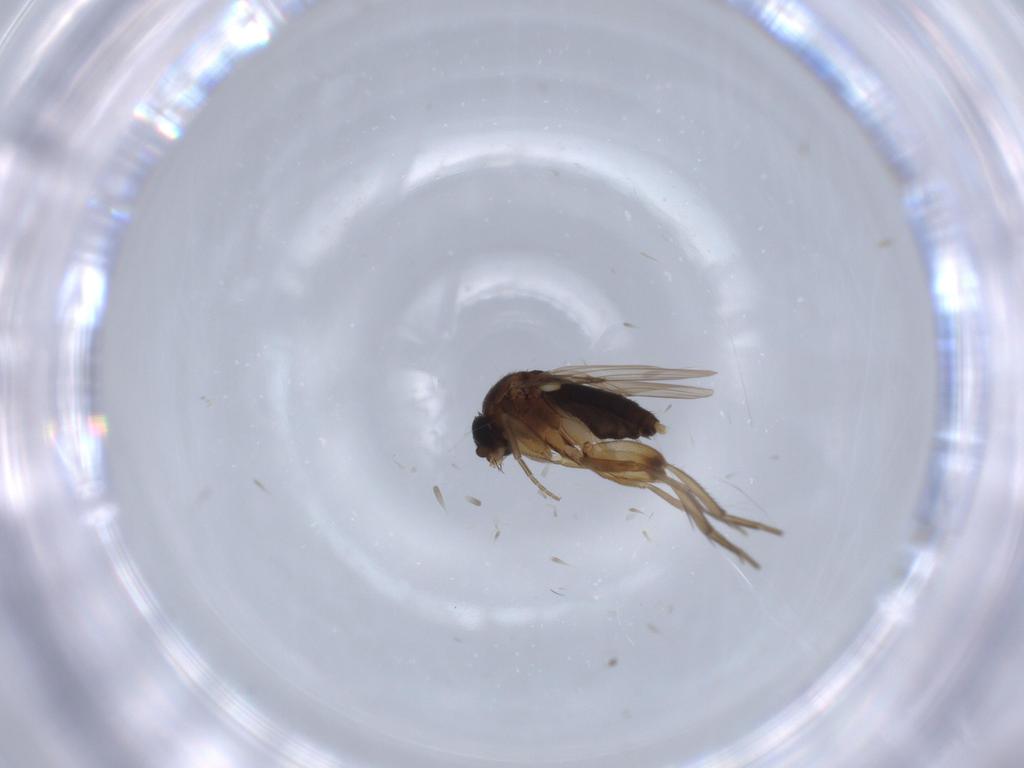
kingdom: Animalia
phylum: Arthropoda
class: Insecta
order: Diptera
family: Phoridae
